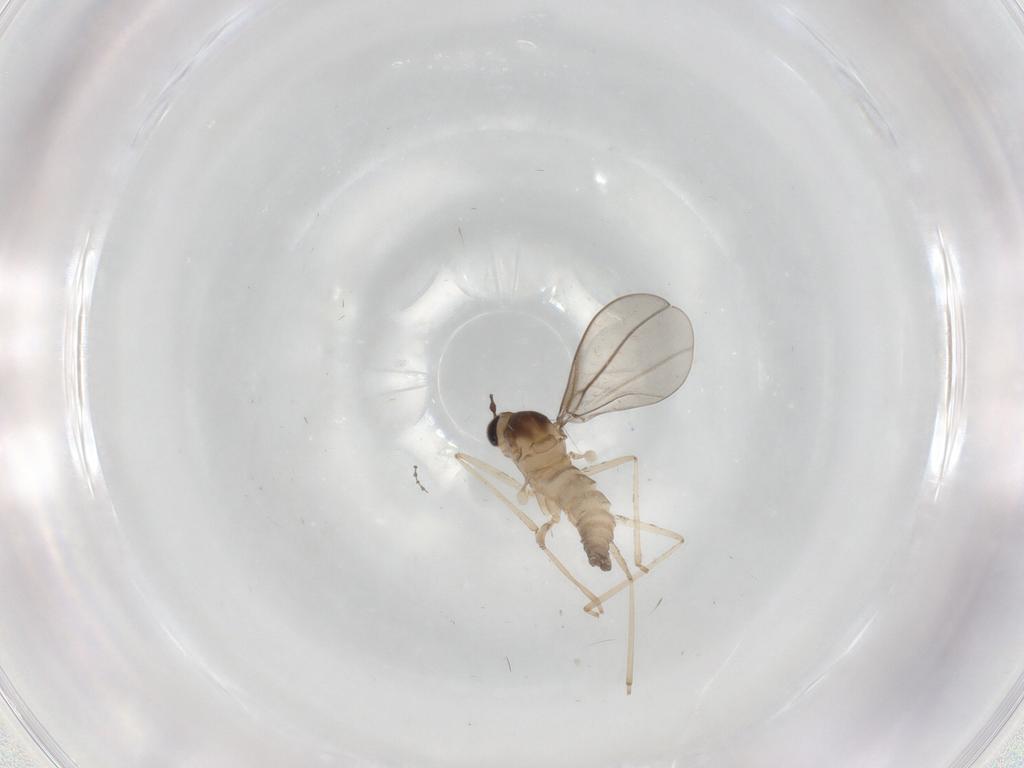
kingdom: Animalia
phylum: Arthropoda
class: Insecta
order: Diptera
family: Cecidomyiidae
